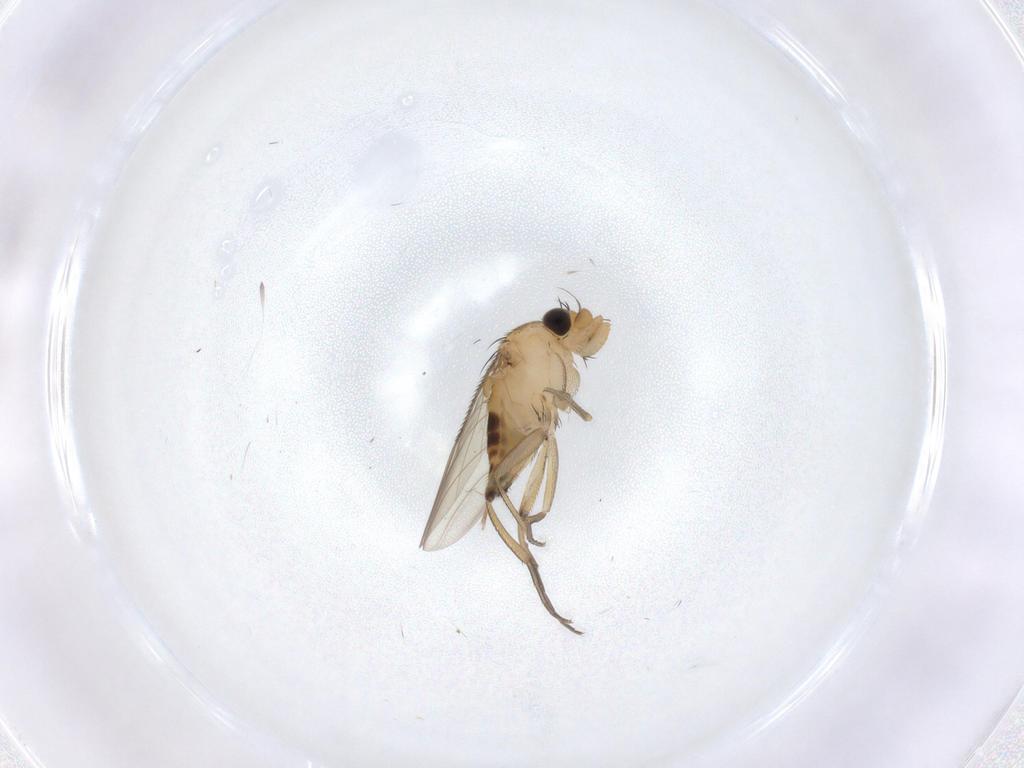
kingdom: Animalia
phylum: Arthropoda
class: Insecta
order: Diptera
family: Phoridae
